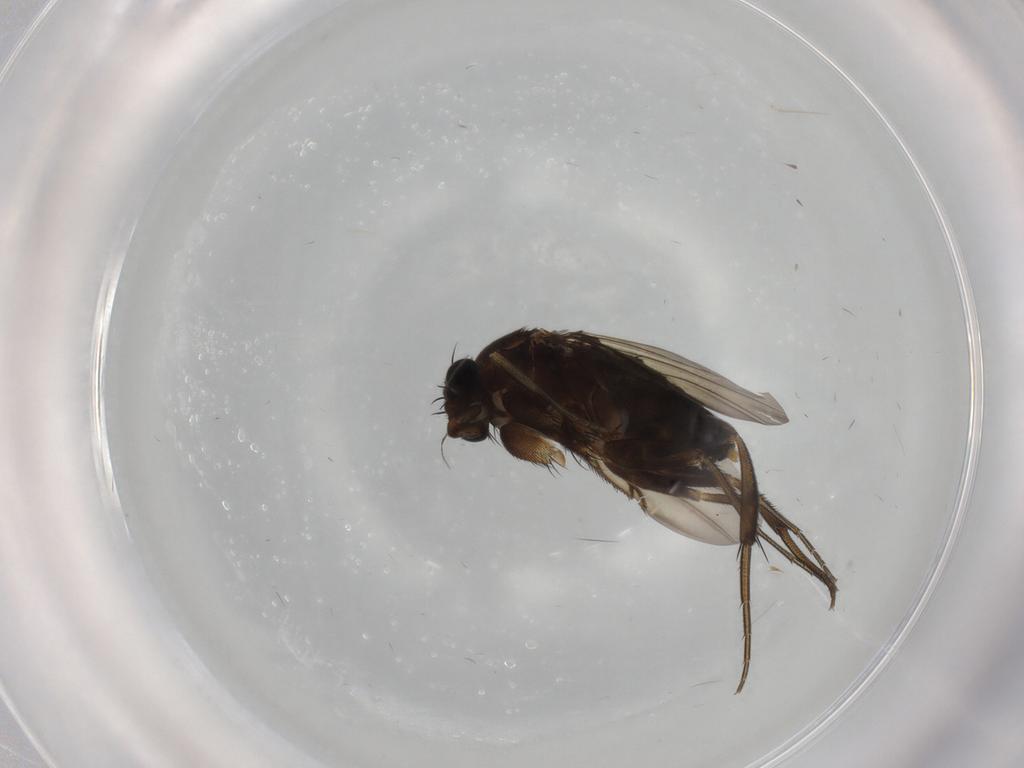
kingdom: Animalia
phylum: Arthropoda
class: Insecta
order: Diptera
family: Phoridae
